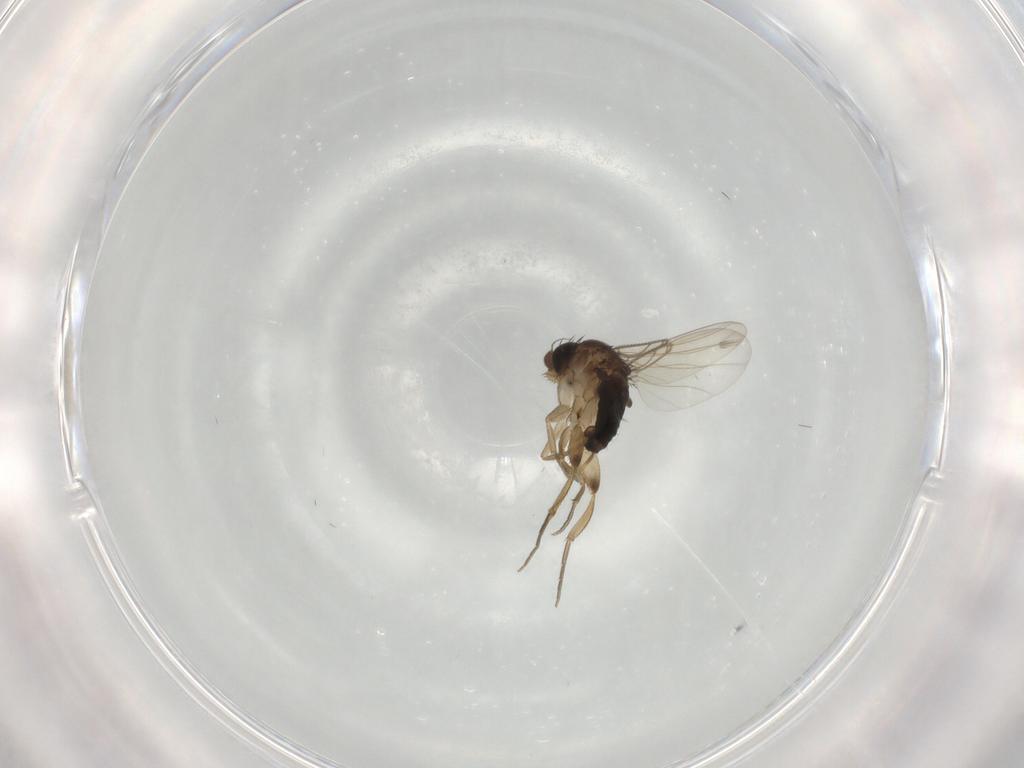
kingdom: Animalia
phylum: Arthropoda
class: Insecta
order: Diptera
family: Phoridae
